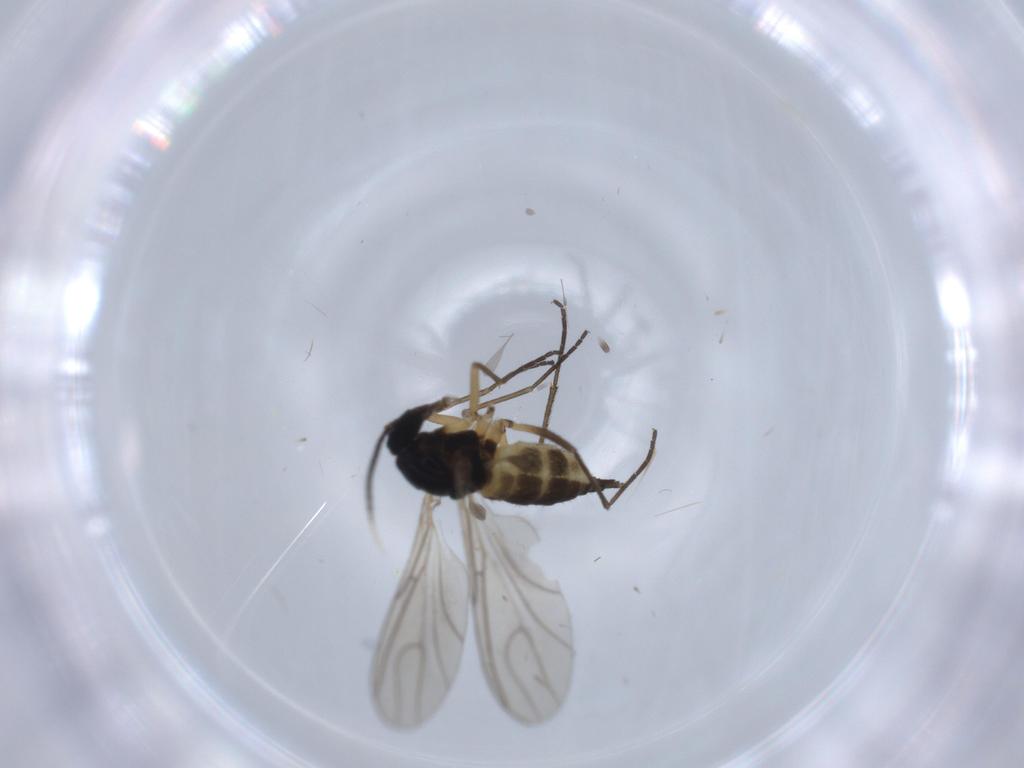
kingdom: Animalia
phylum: Arthropoda
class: Insecta
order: Diptera
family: Sciaridae
